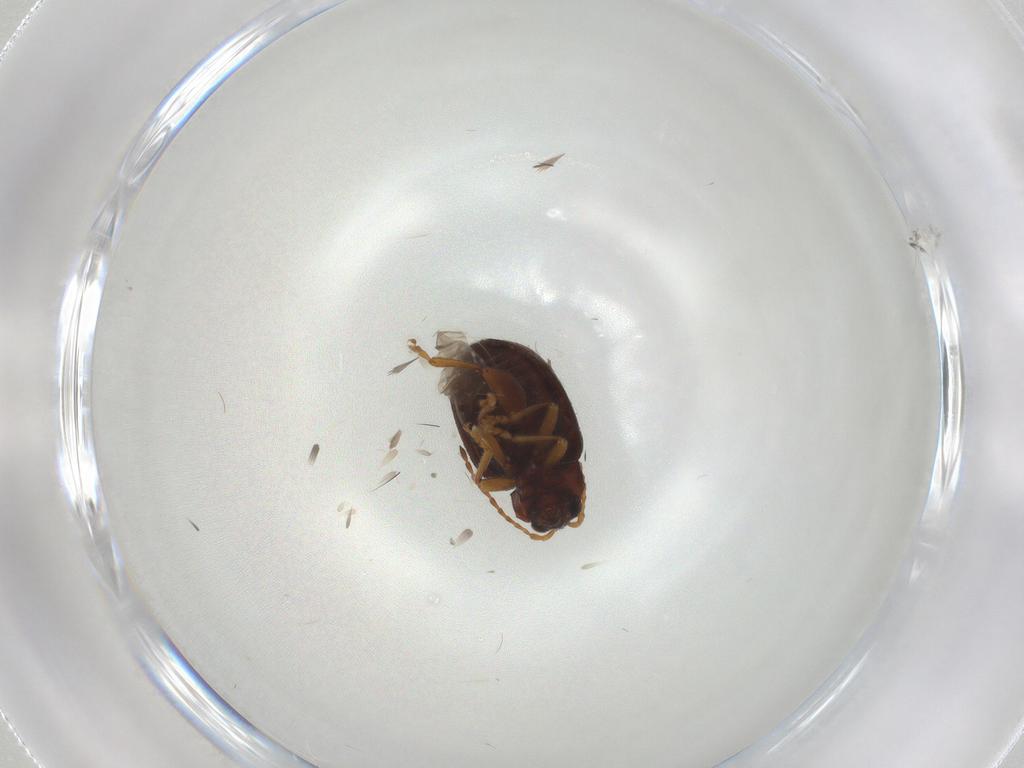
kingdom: Animalia
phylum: Arthropoda
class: Insecta
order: Coleoptera
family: Chrysomelidae
